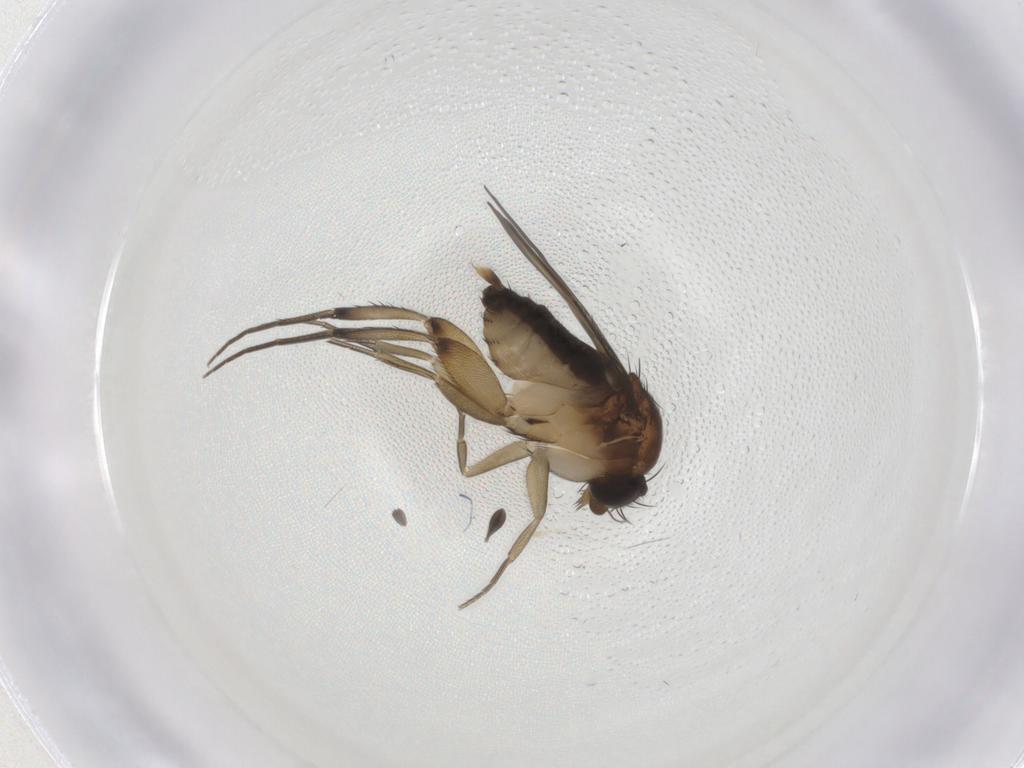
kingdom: Animalia
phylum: Arthropoda
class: Insecta
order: Diptera
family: Phoridae
